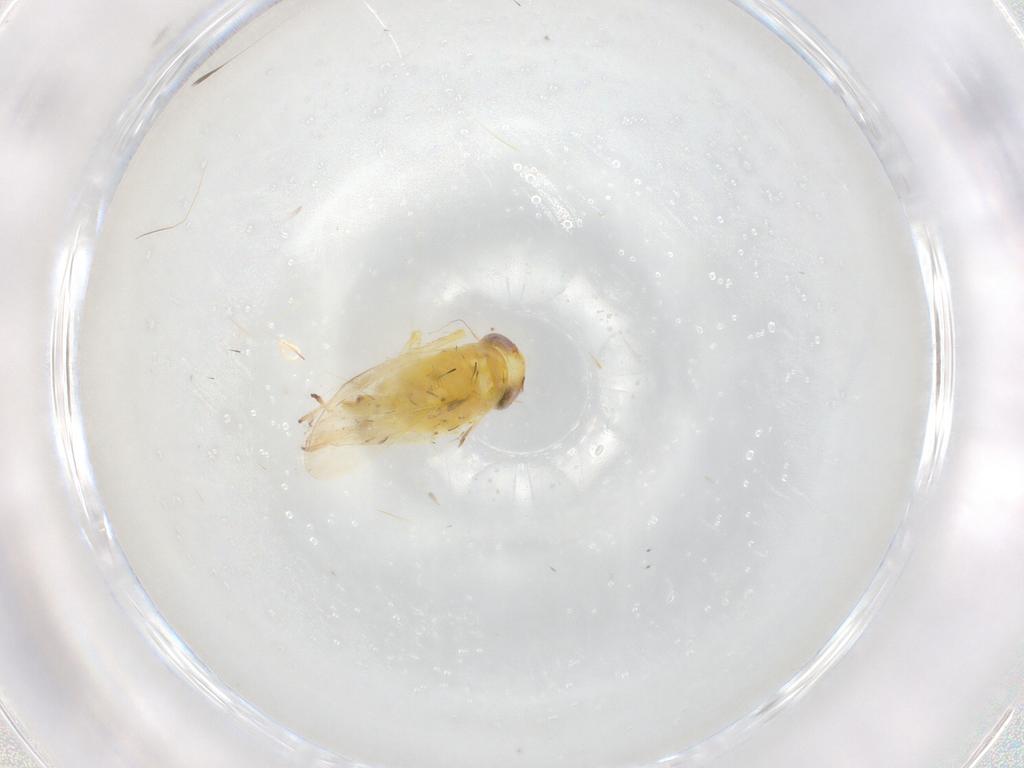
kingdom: Animalia
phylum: Arthropoda
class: Insecta
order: Hemiptera
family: Cicadellidae
